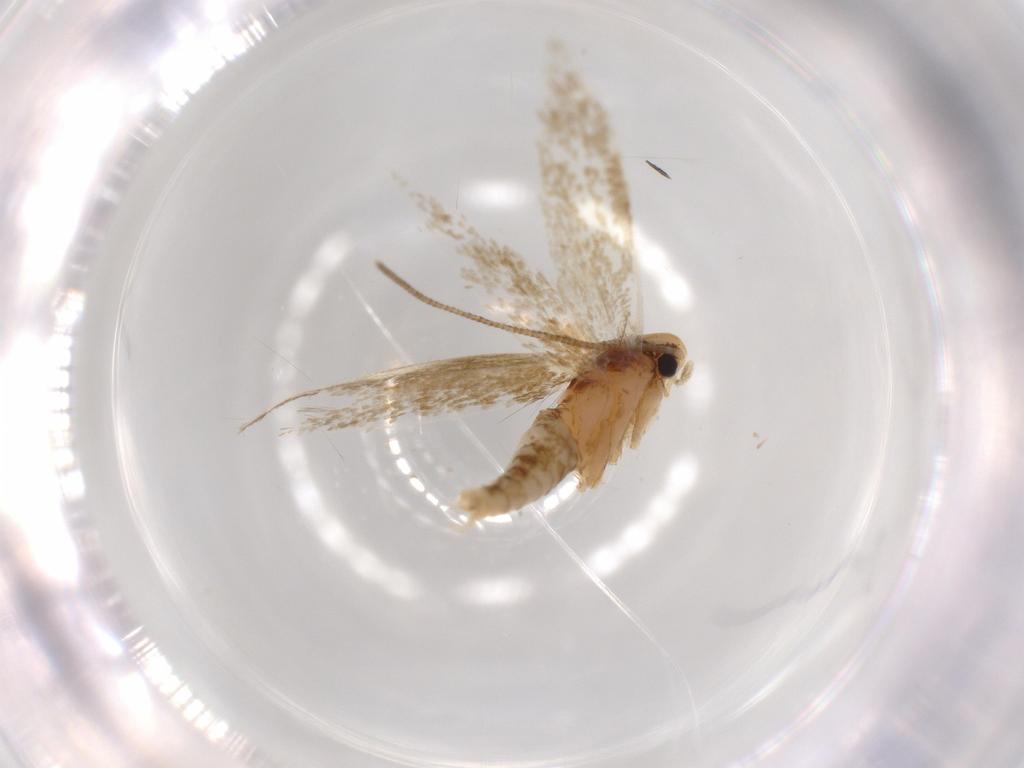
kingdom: Animalia
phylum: Arthropoda
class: Insecta
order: Lepidoptera
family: Tineidae
